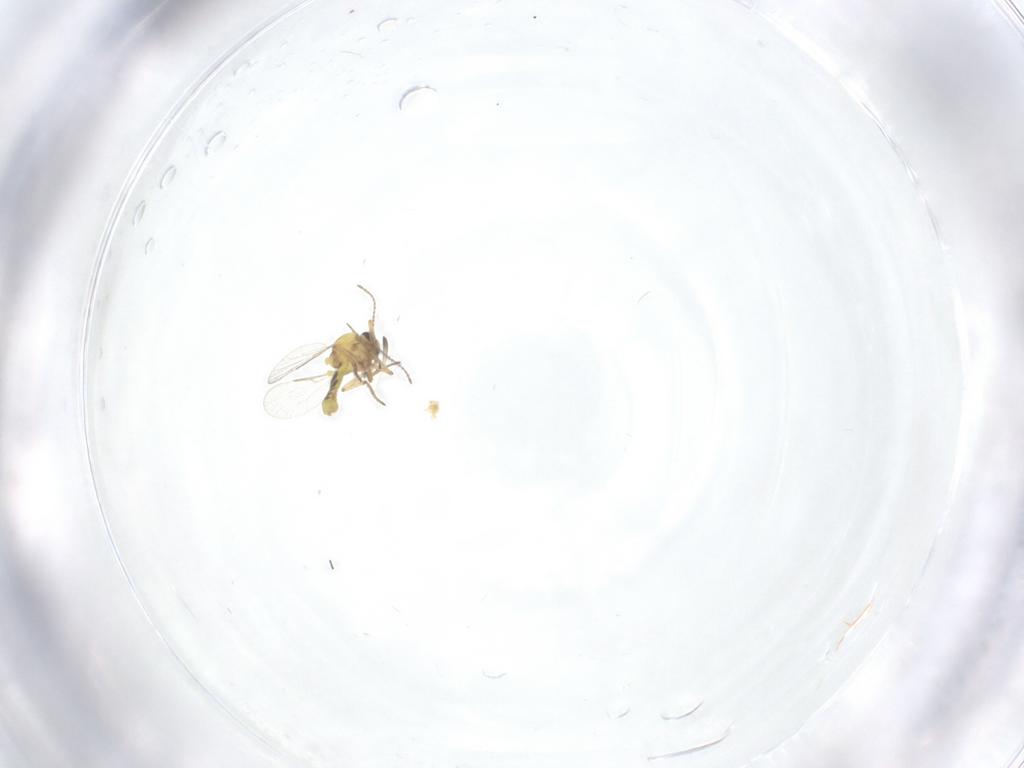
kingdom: Animalia
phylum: Arthropoda
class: Insecta
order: Diptera
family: Ceratopogonidae
